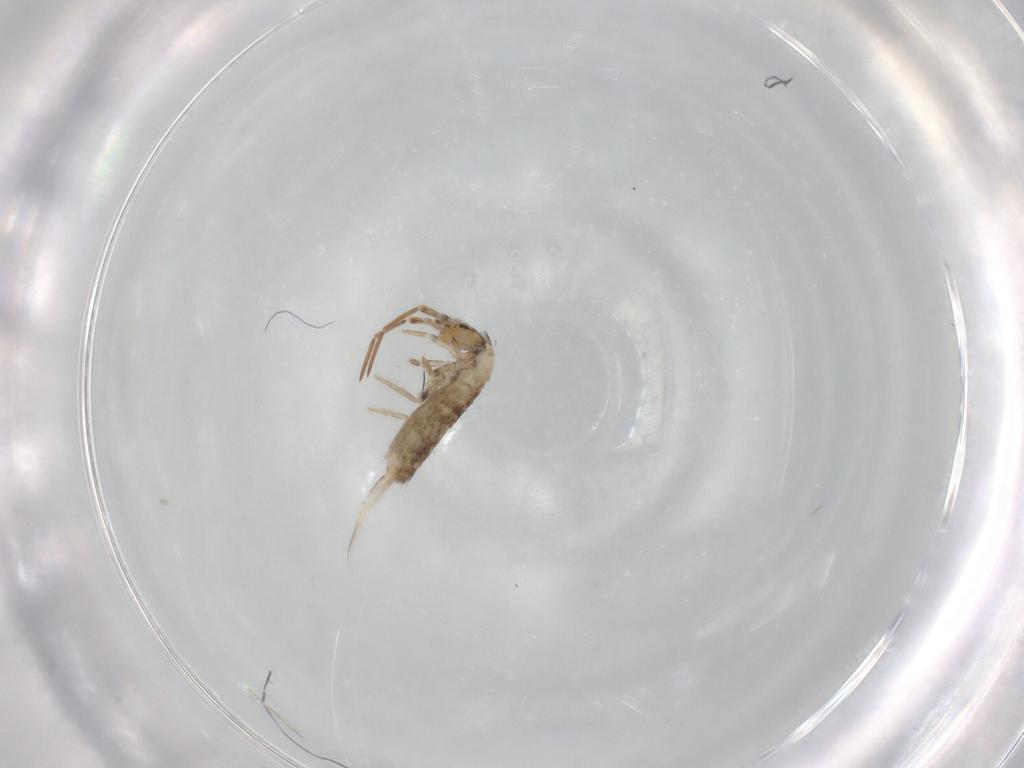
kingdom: Animalia
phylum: Arthropoda
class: Collembola
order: Entomobryomorpha
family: Entomobryidae
